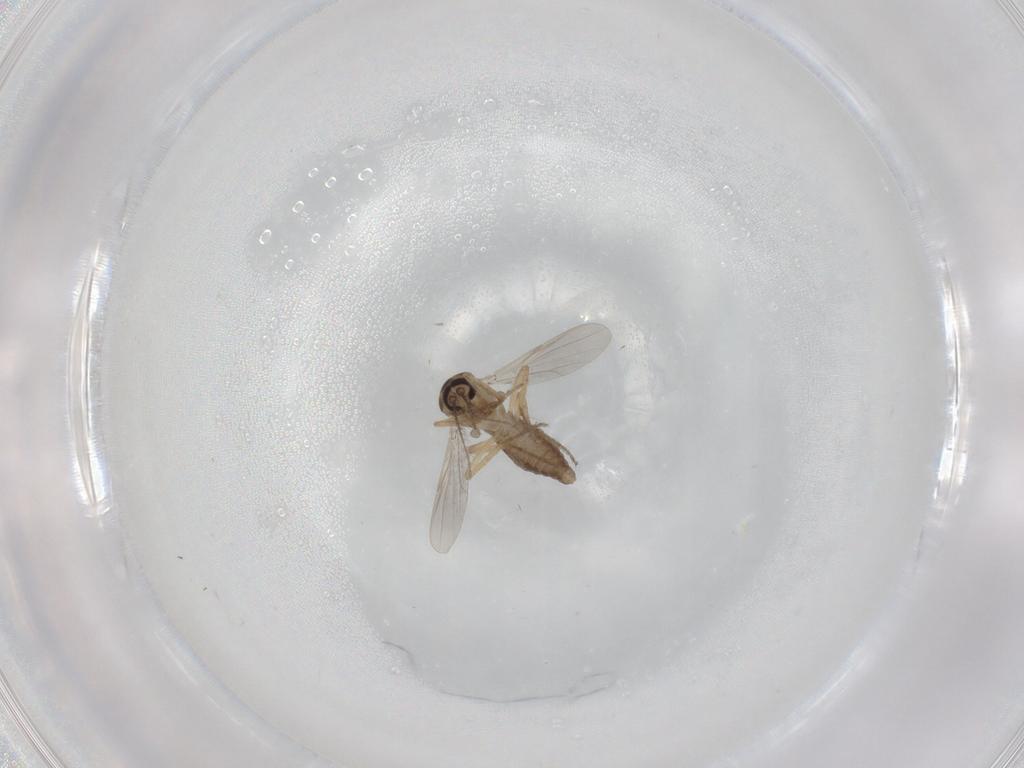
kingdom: Animalia
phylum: Arthropoda
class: Insecta
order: Diptera
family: Ceratopogonidae
